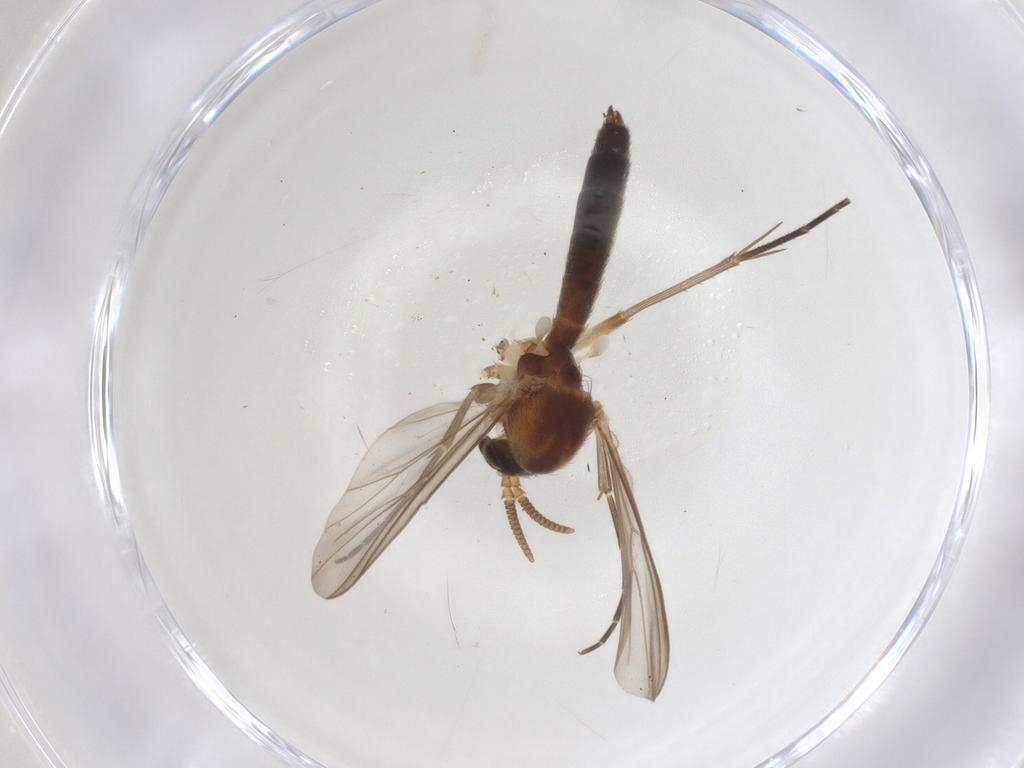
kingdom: Animalia
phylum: Arthropoda
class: Insecta
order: Diptera
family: Mycetophilidae
